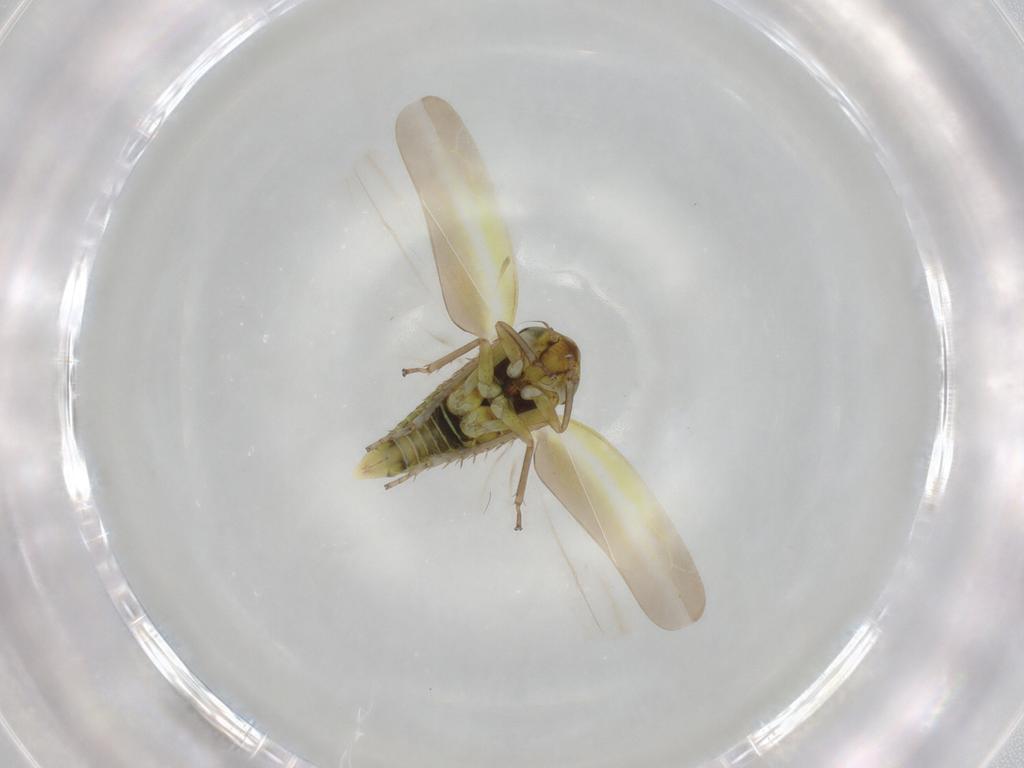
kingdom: Animalia
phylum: Arthropoda
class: Insecta
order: Hemiptera
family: Cicadellidae
